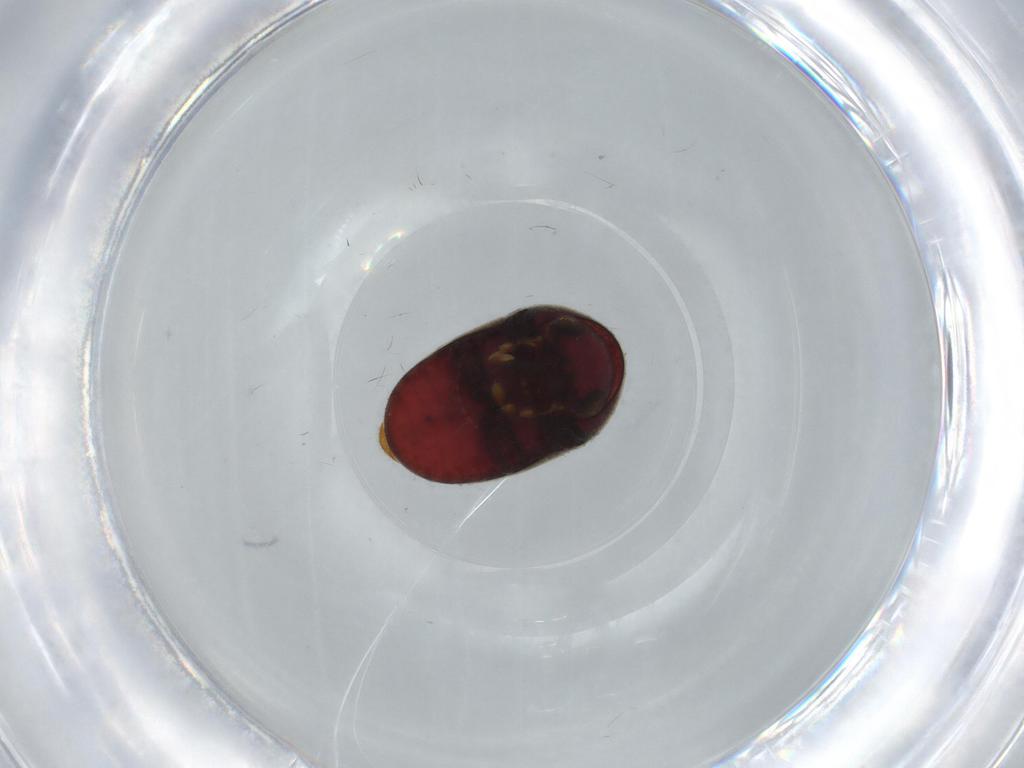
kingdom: Animalia
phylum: Arthropoda
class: Insecta
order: Coleoptera
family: Ptinidae
